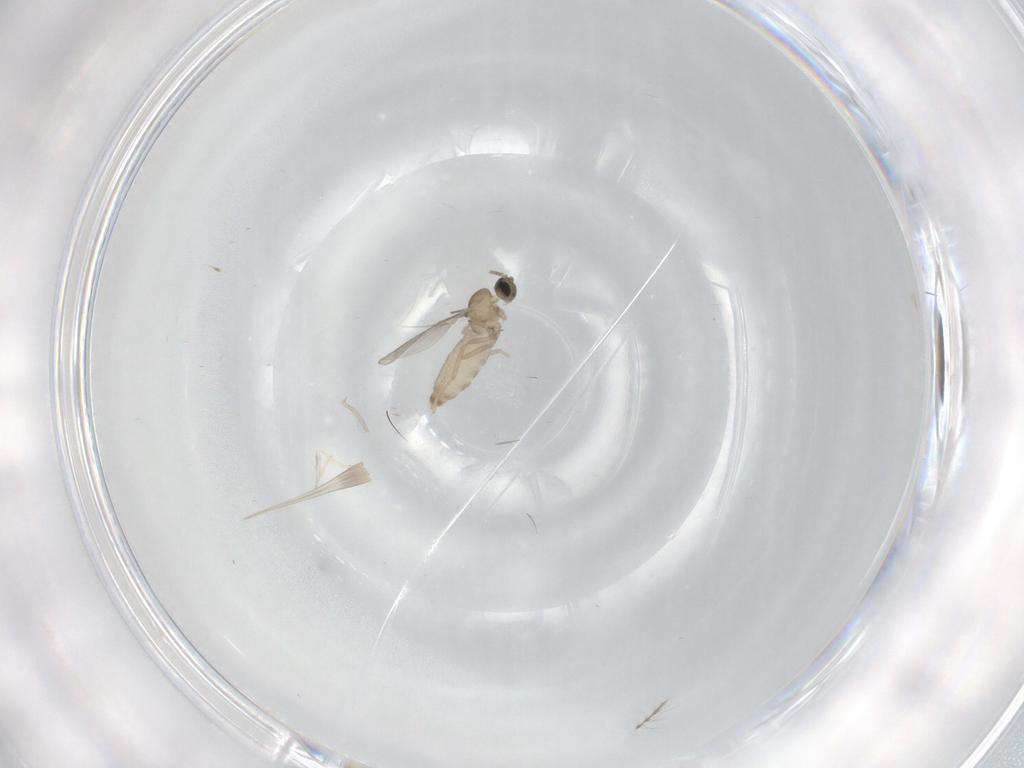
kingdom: Animalia
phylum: Arthropoda
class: Insecta
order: Diptera
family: Cecidomyiidae
